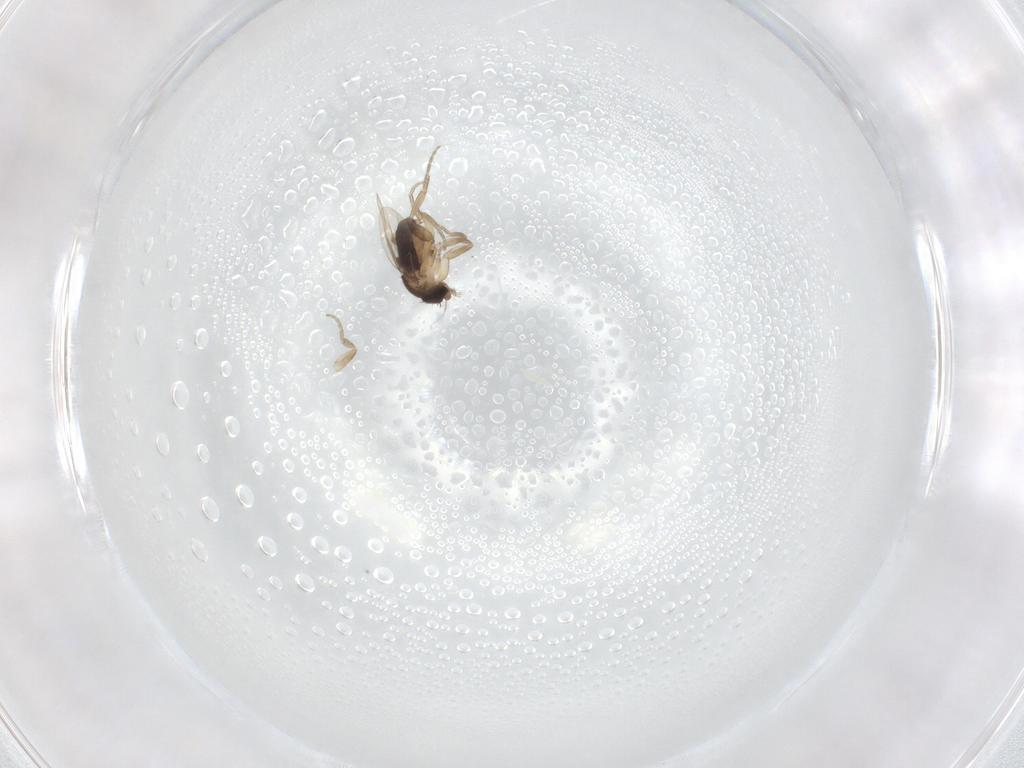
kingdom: Animalia
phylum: Arthropoda
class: Insecta
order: Diptera
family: Phoridae
